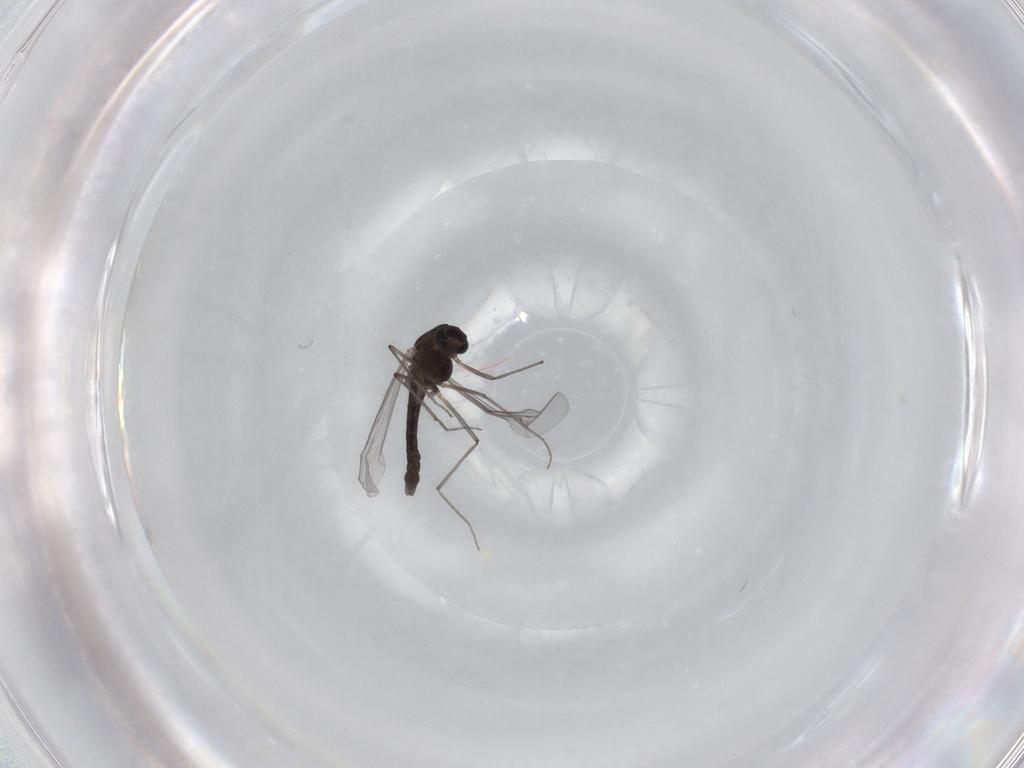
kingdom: Animalia
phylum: Arthropoda
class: Insecta
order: Diptera
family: Chironomidae
